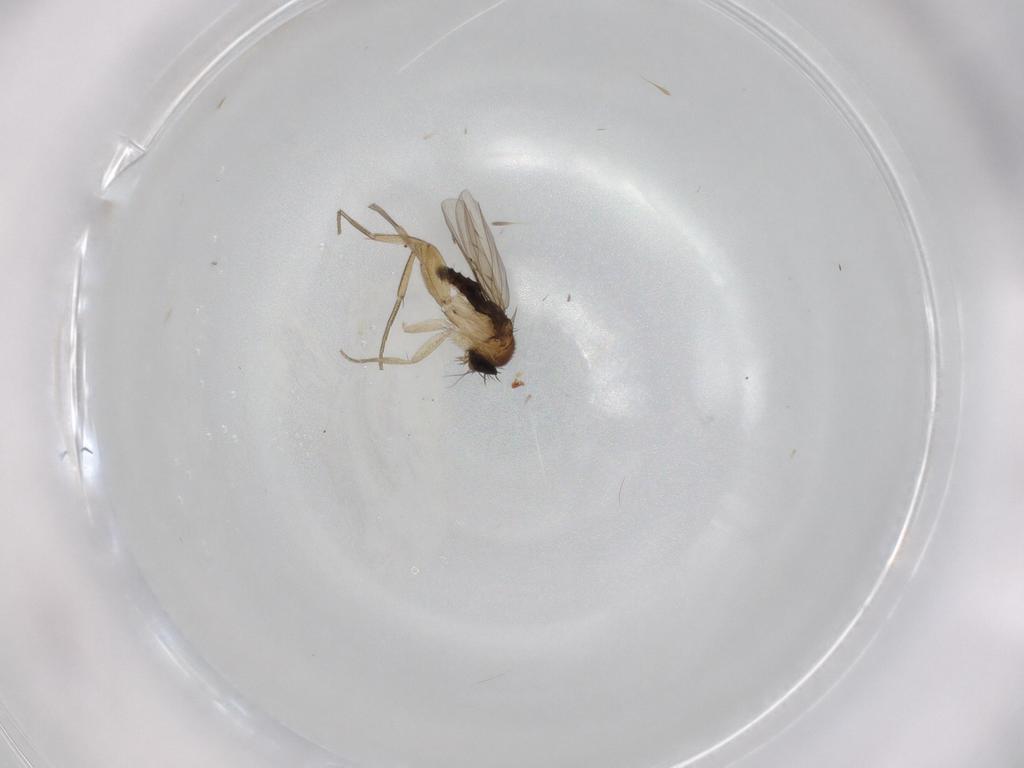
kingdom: Animalia
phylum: Arthropoda
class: Insecta
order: Diptera
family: Phoridae
